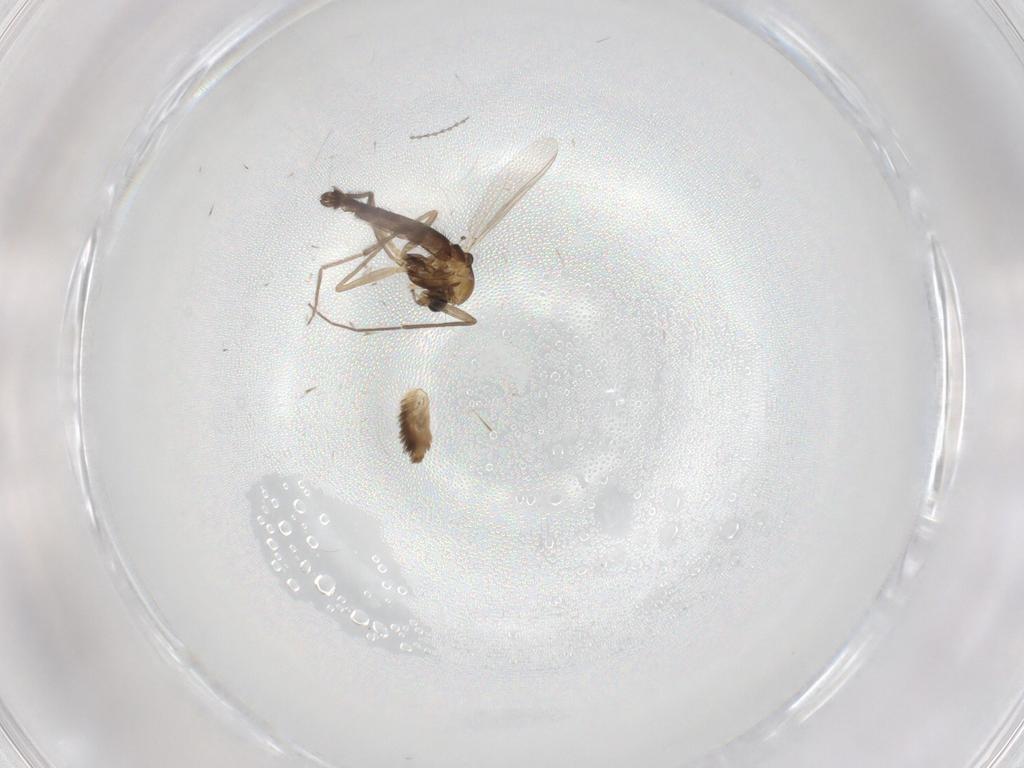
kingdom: Animalia
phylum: Arthropoda
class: Insecta
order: Diptera
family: Chironomidae
